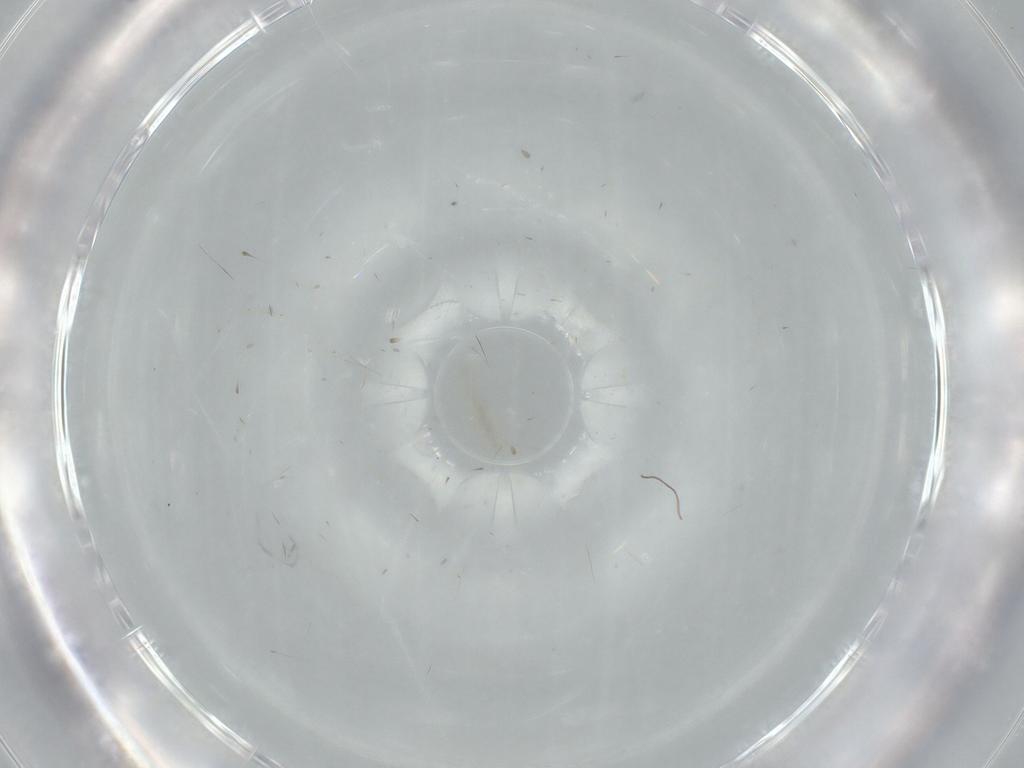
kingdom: Animalia
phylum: Arthropoda
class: Insecta
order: Diptera
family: Cecidomyiidae
